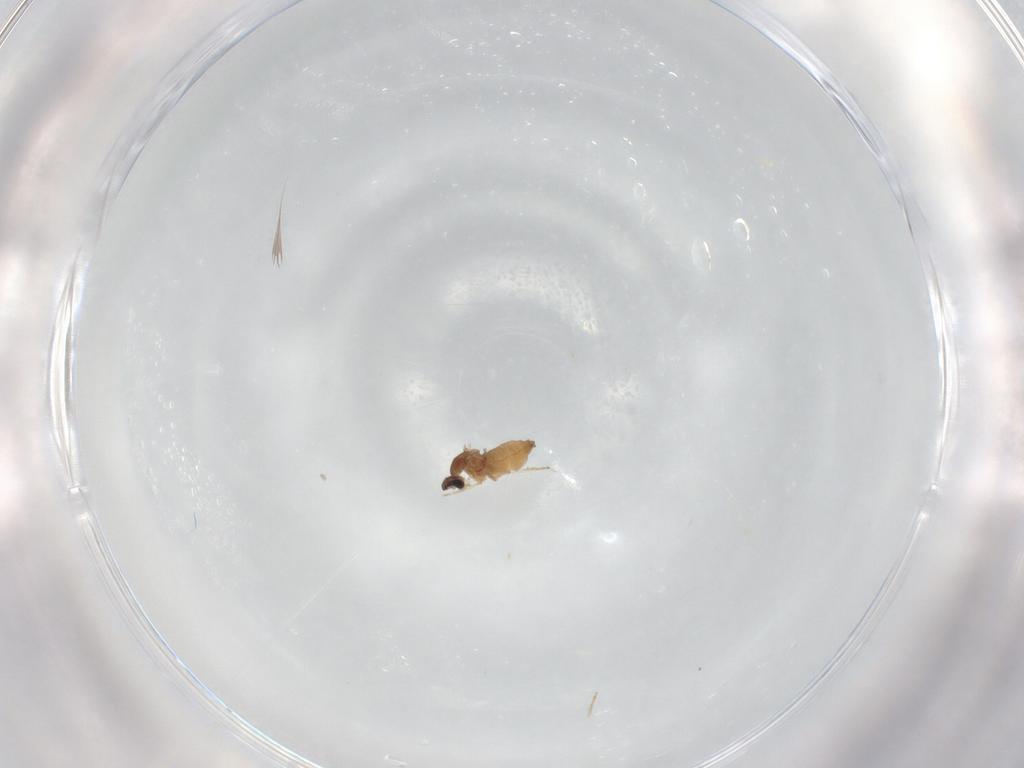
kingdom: Animalia
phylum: Arthropoda
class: Insecta
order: Diptera
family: Cecidomyiidae
